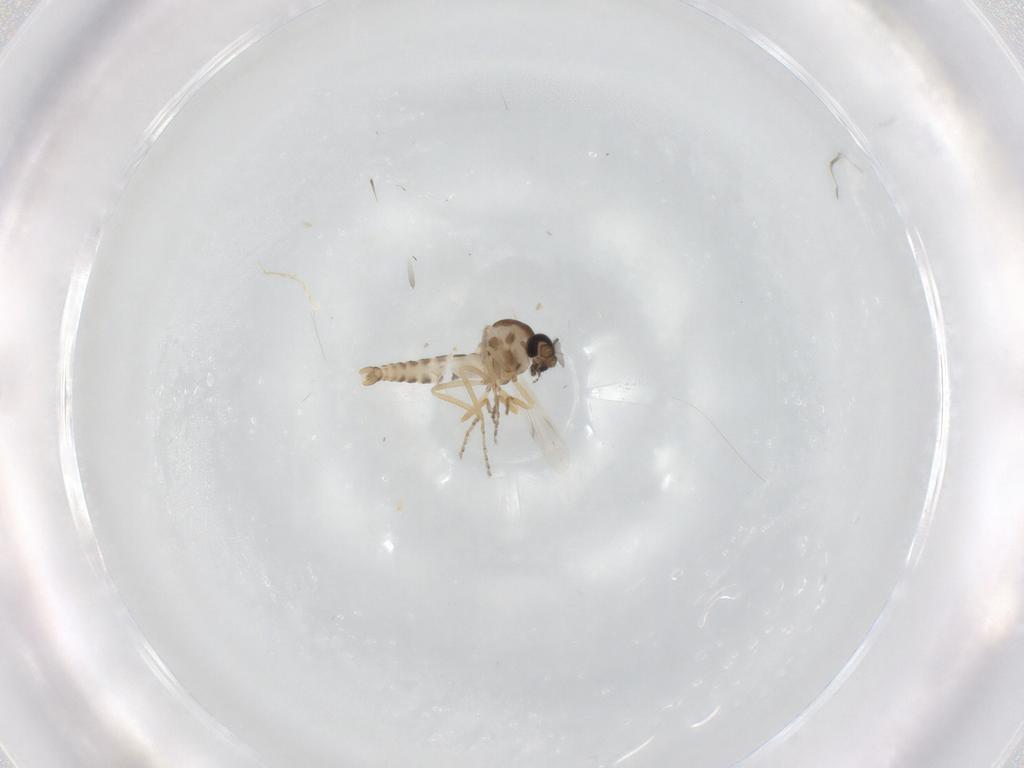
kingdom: Animalia
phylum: Arthropoda
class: Insecta
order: Diptera
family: Ceratopogonidae
